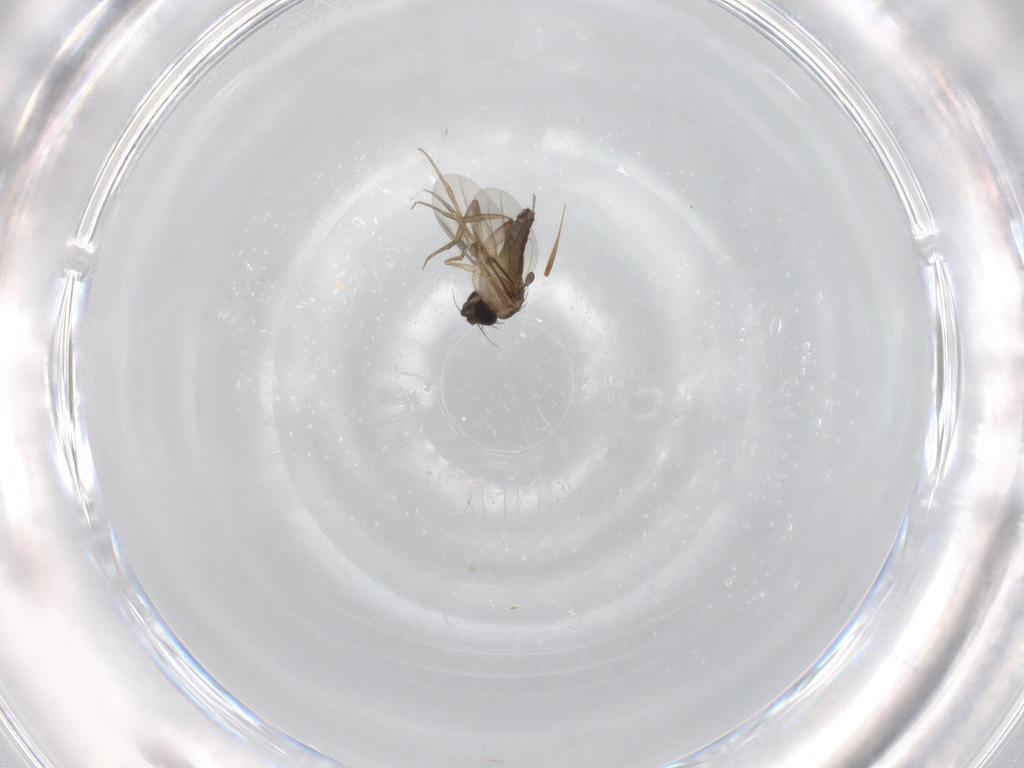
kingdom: Animalia
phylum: Arthropoda
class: Insecta
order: Diptera
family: Phoridae
